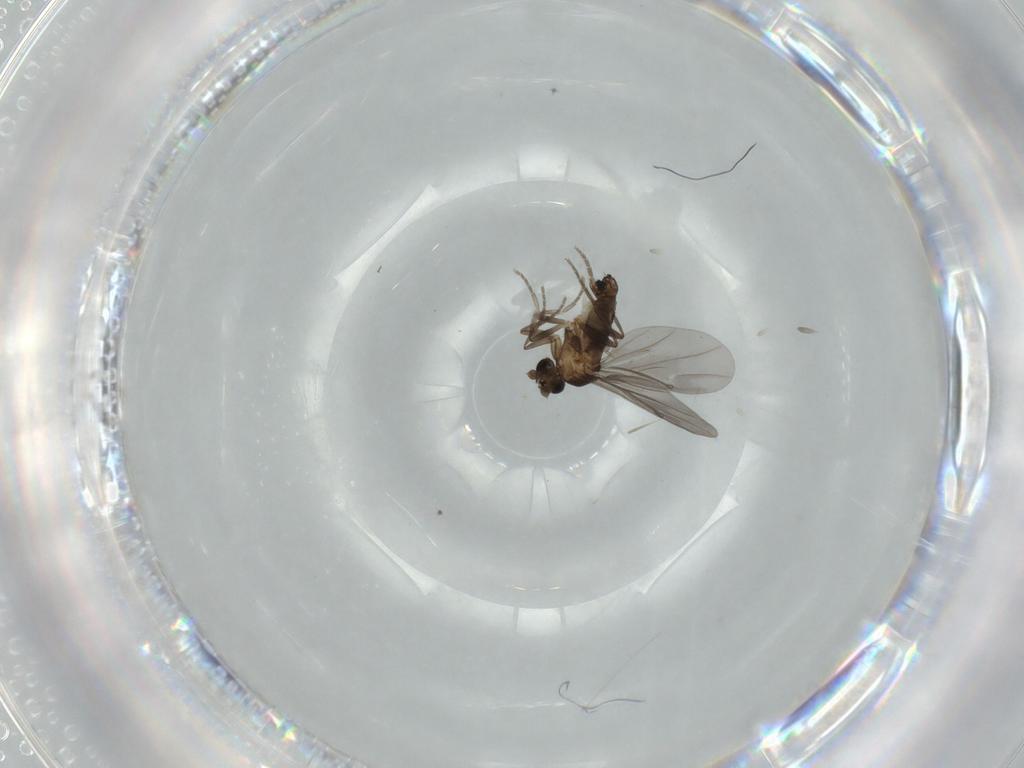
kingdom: Animalia
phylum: Arthropoda
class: Insecta
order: Diptera
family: Phoridae
